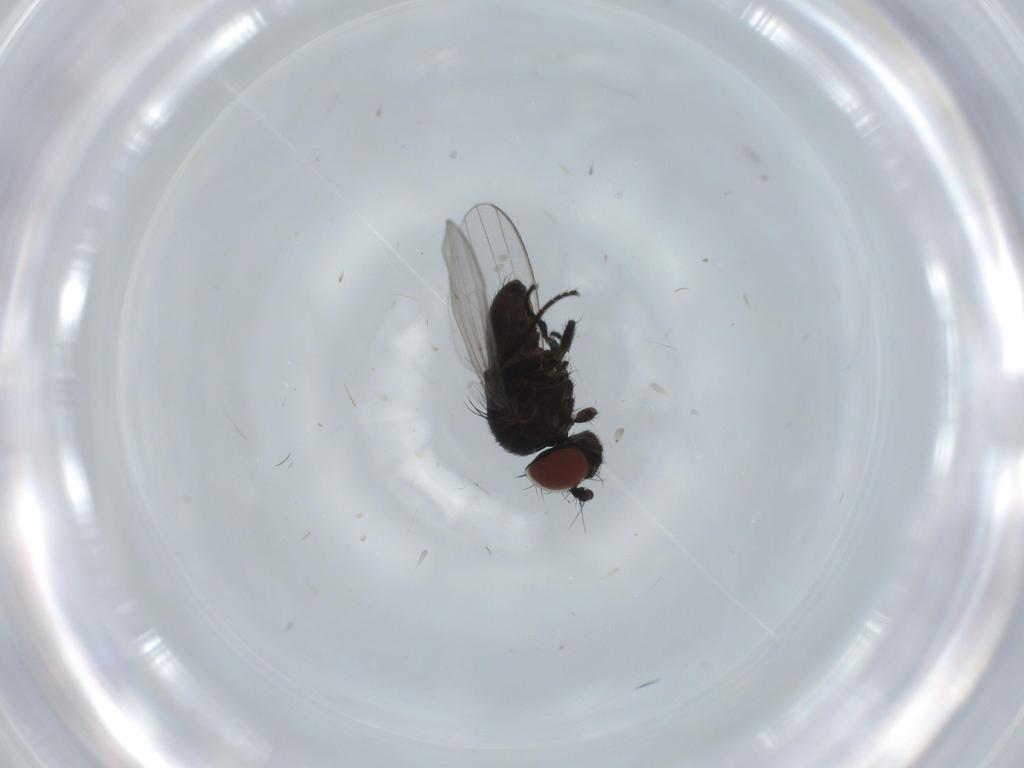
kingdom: Animalia
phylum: Arthropoda
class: Insecta
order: Diptera
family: Milichiidae
